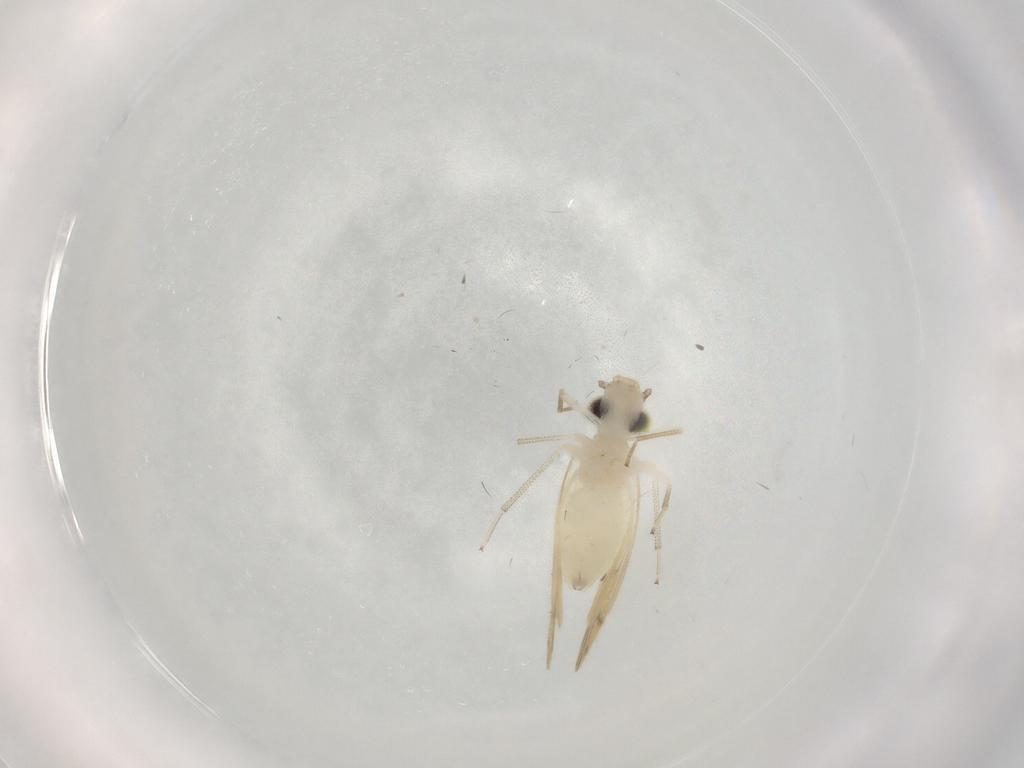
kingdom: Animalia
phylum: Arthropoda
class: Insecta
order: Psocodea
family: Caeciliusidae
